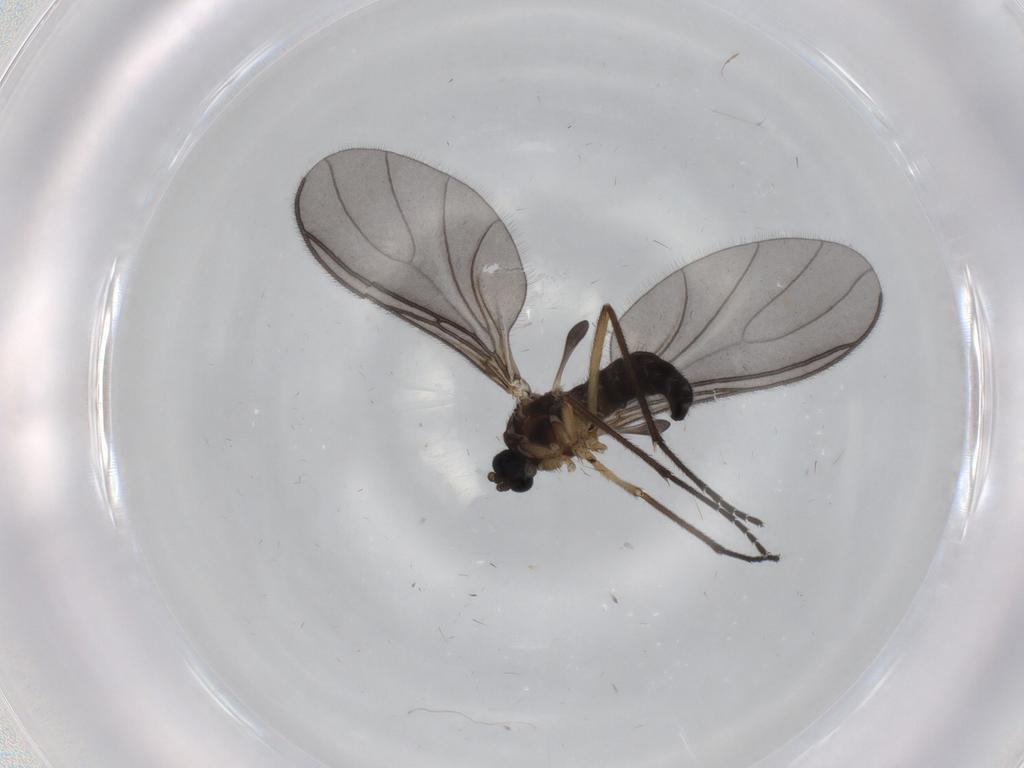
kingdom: Animalia
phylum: Arthropoda
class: Insecta
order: Diptera
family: Sciaridae
